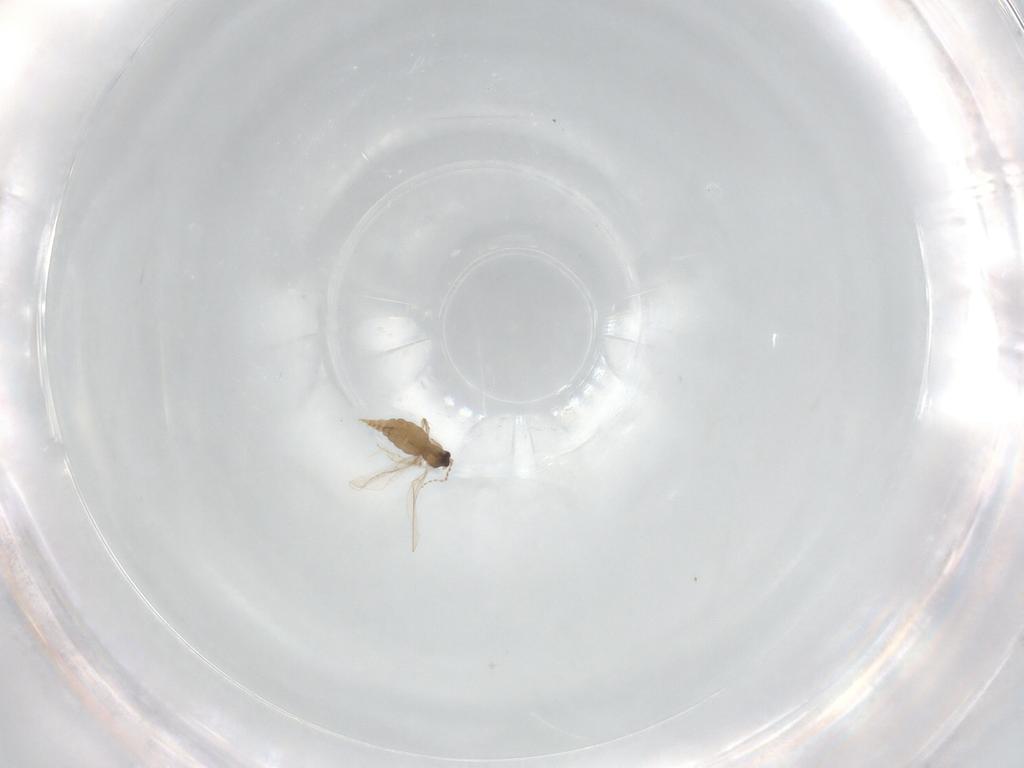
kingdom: Animalia
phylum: Arthropoda
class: Insecta
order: Diptera
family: Cecidomyiidae
